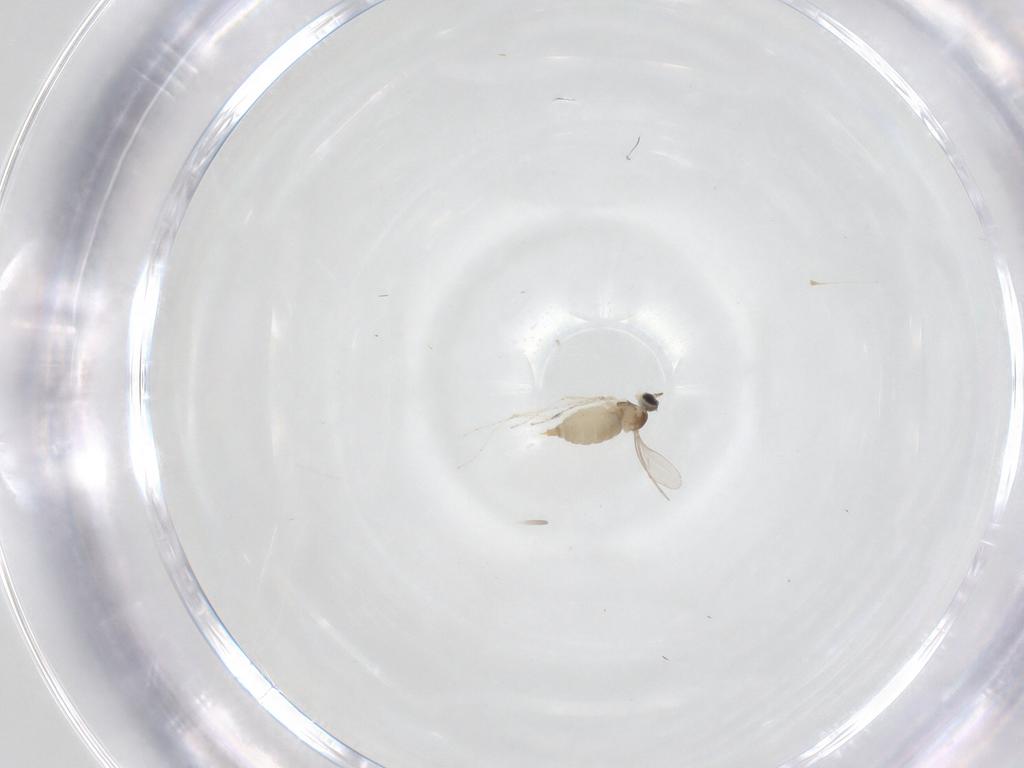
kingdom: Animalia
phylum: Arthropoda
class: Insecta
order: Diptera
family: Cecidomyiidae
